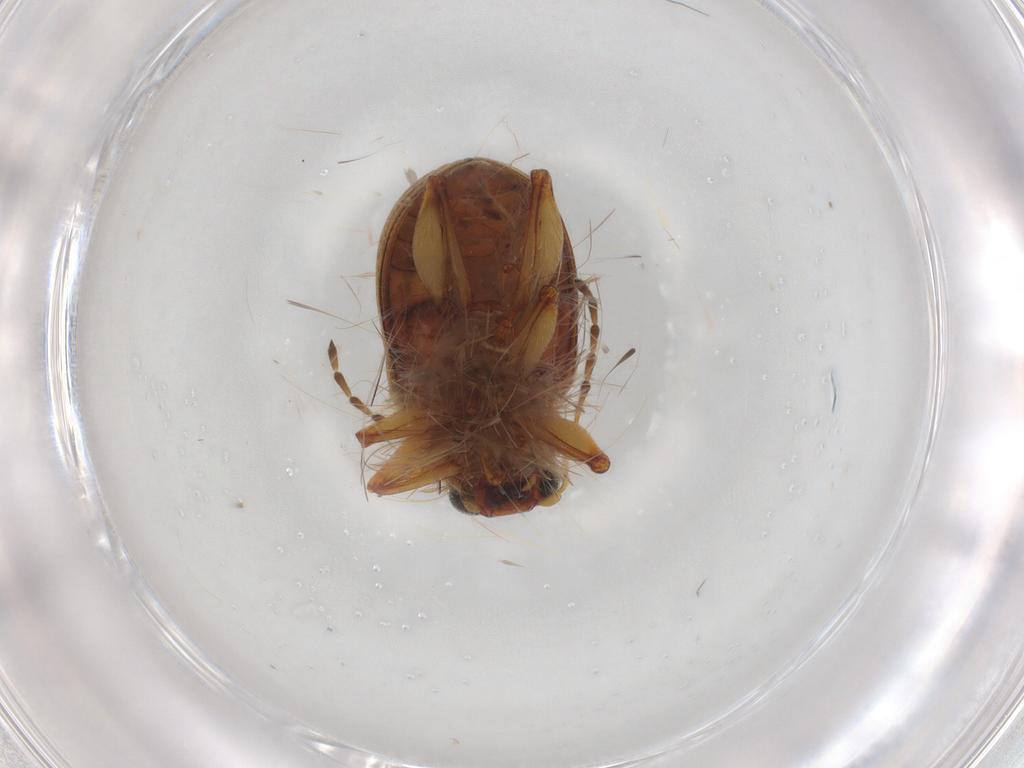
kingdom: Animalia
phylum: Arthropoda
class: Insecta
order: Coleoptera
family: Chrysomelidae
